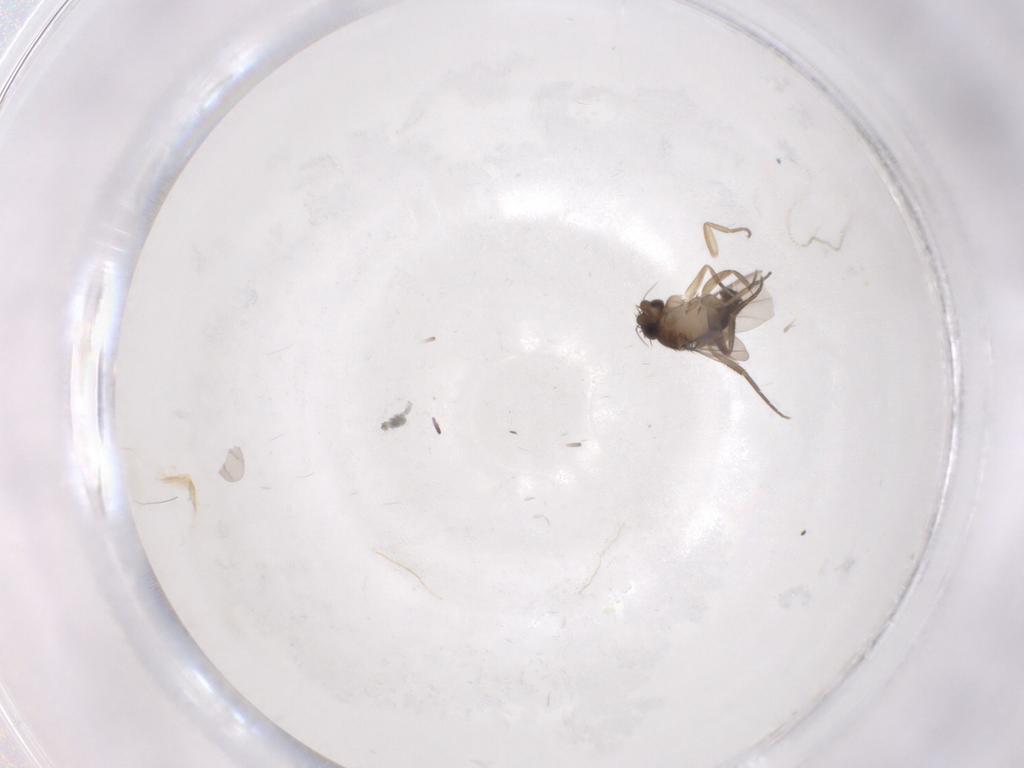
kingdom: Animalia
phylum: Arthropoda
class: Insecta
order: Diptera
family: Phoridae
